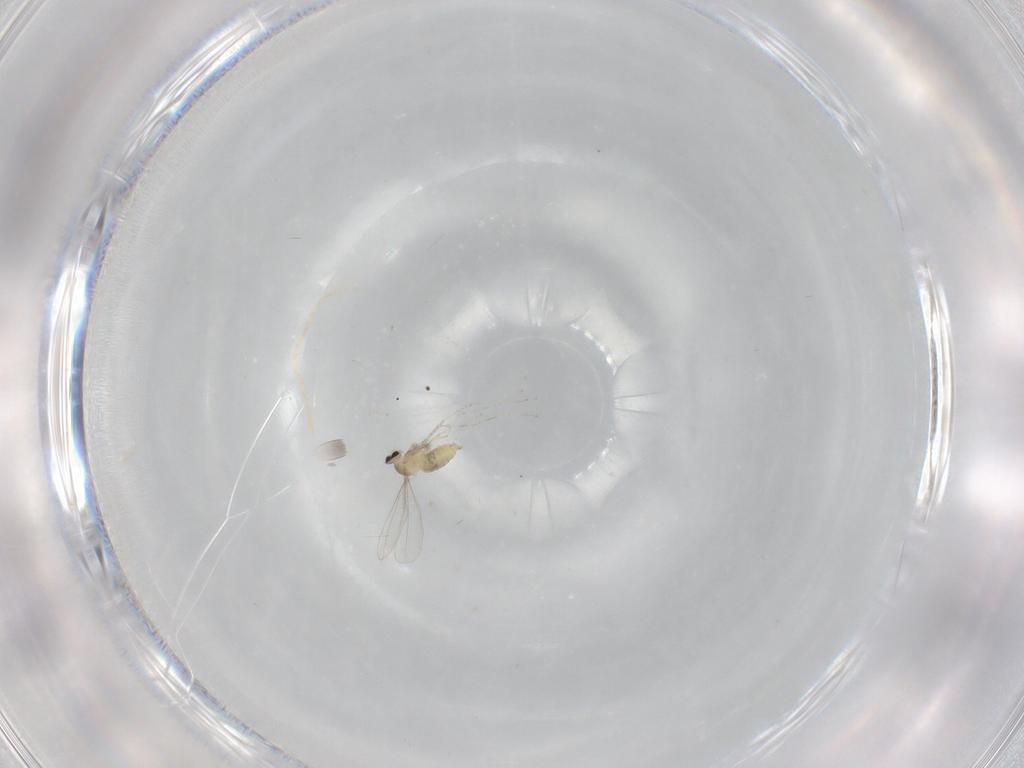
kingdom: Animalia
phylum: Arthropoda
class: Insecta
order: Diptera
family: Cecidomyiidae
